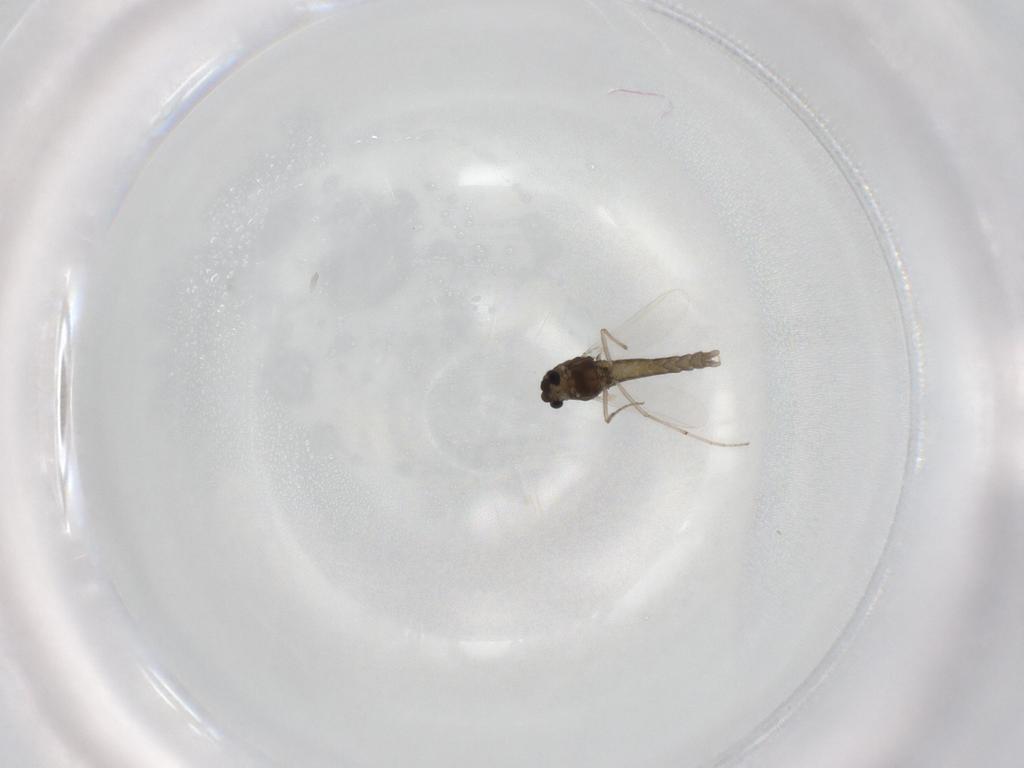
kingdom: Animalia
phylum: Arthropoda
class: Insecta
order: Diptera
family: Chironomidae
